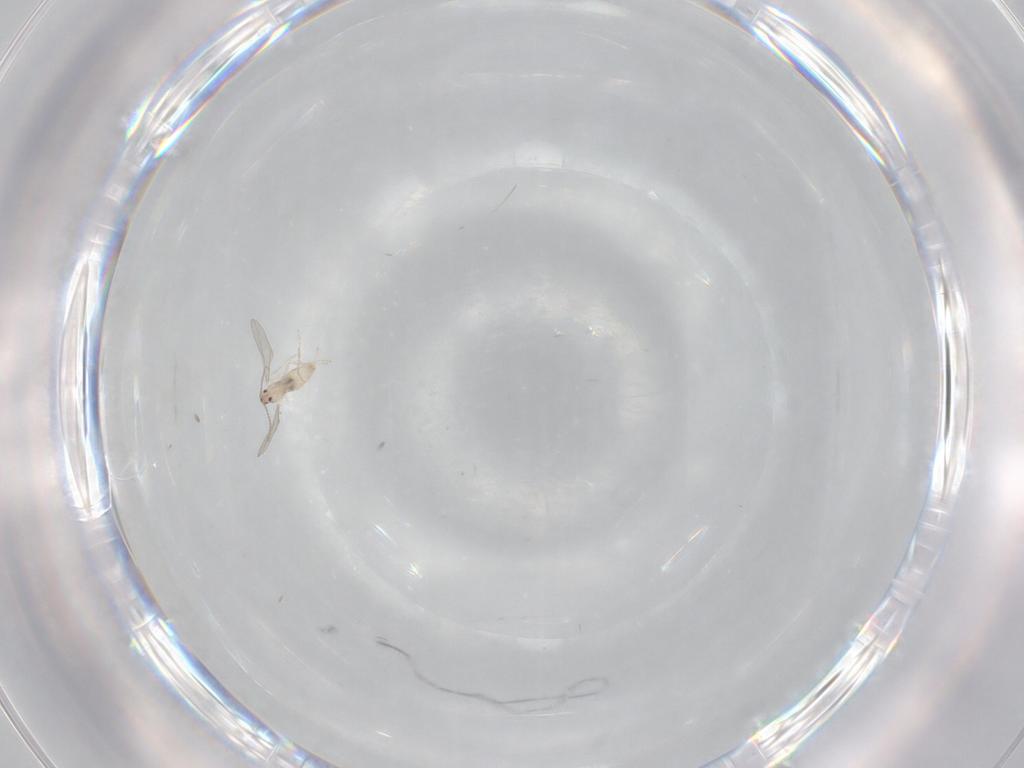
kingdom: Animalia
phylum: Arthropoda
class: Insecta
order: Diptera
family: Cecidomyiidae
